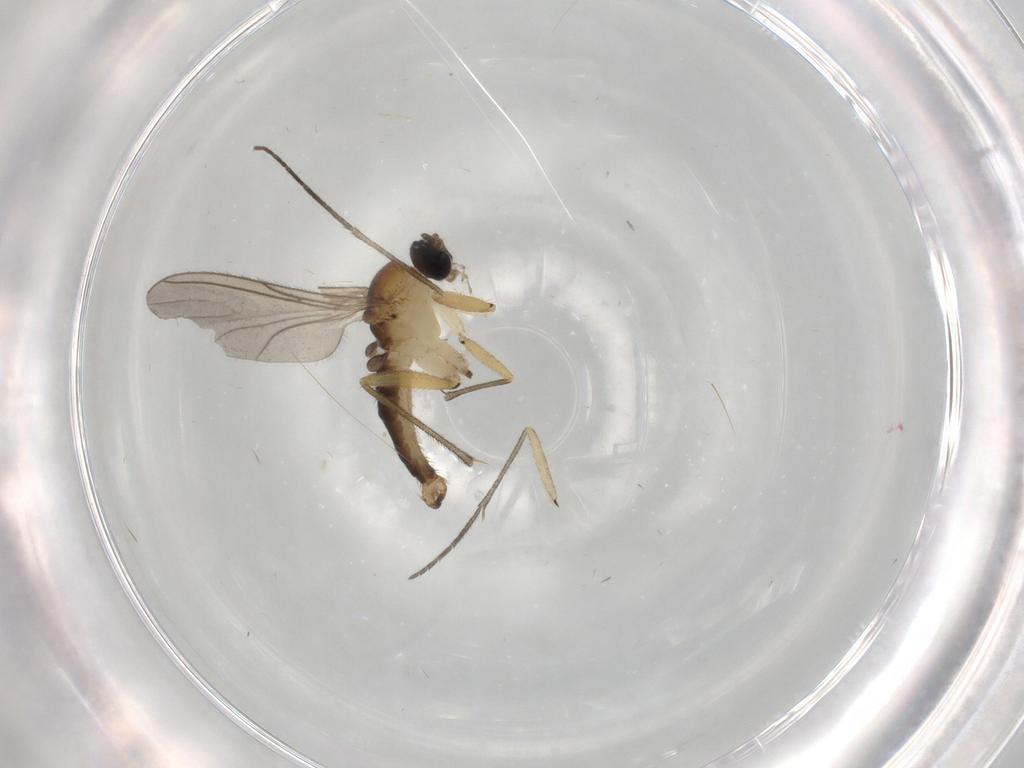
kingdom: Animalia
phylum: Arthropoda
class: Insecta
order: Diptera
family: Sciaridae
